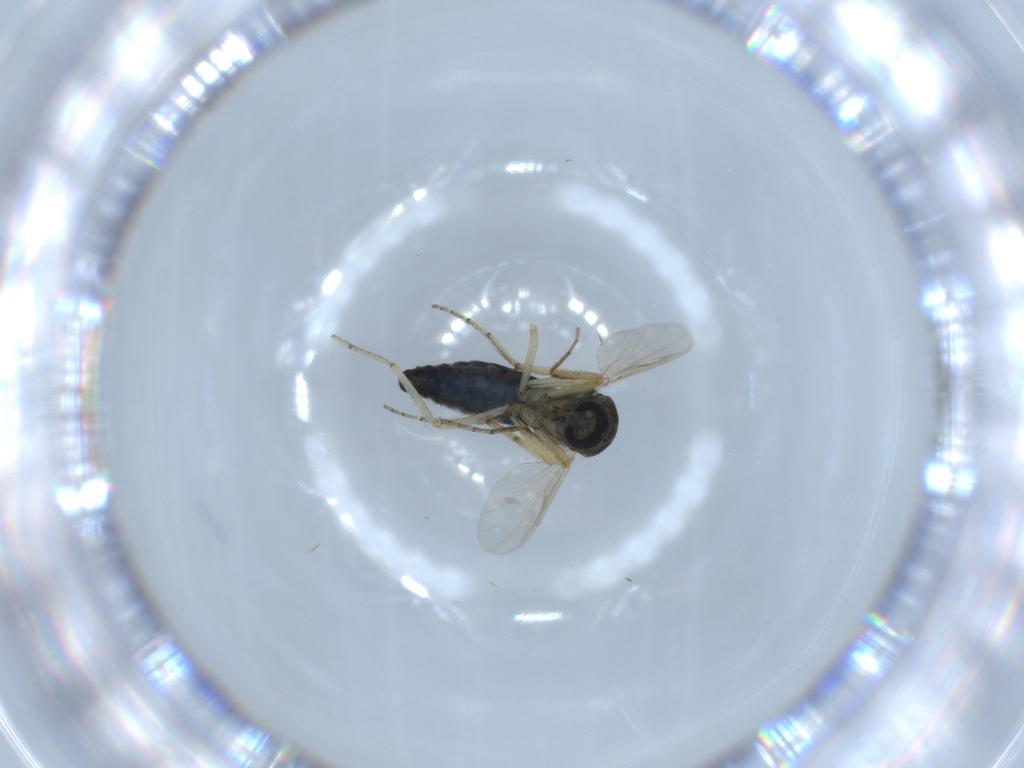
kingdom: Animalia
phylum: Arthropoda
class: Insecta
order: Diptera
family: Ceratopogonidae
